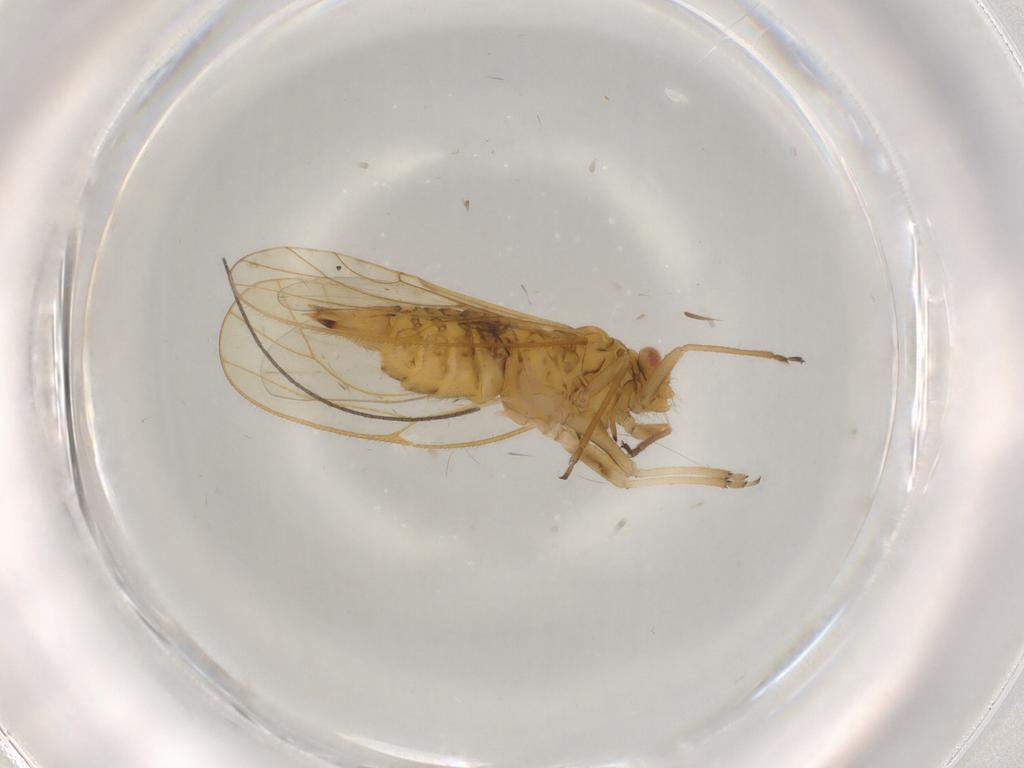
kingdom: Animalia
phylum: Arthropoda
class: Insecta
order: Hemiptera
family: Psyllidae
